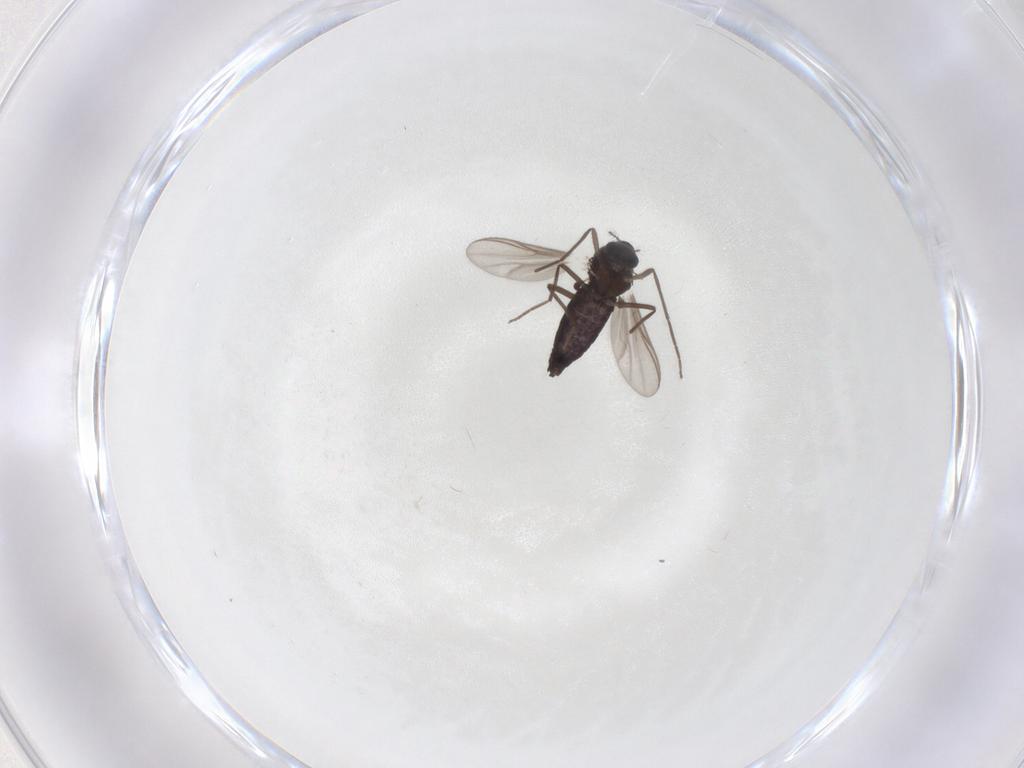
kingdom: Animalia
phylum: Arthropoda
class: Insecta
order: Diptera
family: Chironomidae
